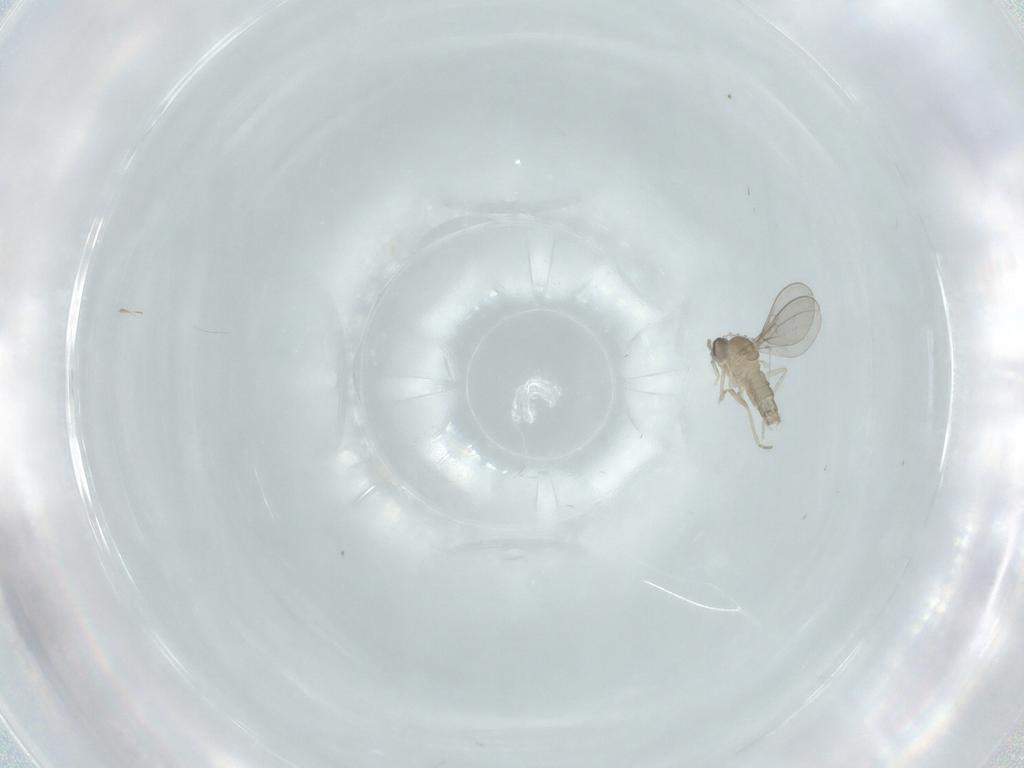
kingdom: Animalia
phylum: Arthropoda
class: Insecta
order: Diptera
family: Cecidomyiidae
